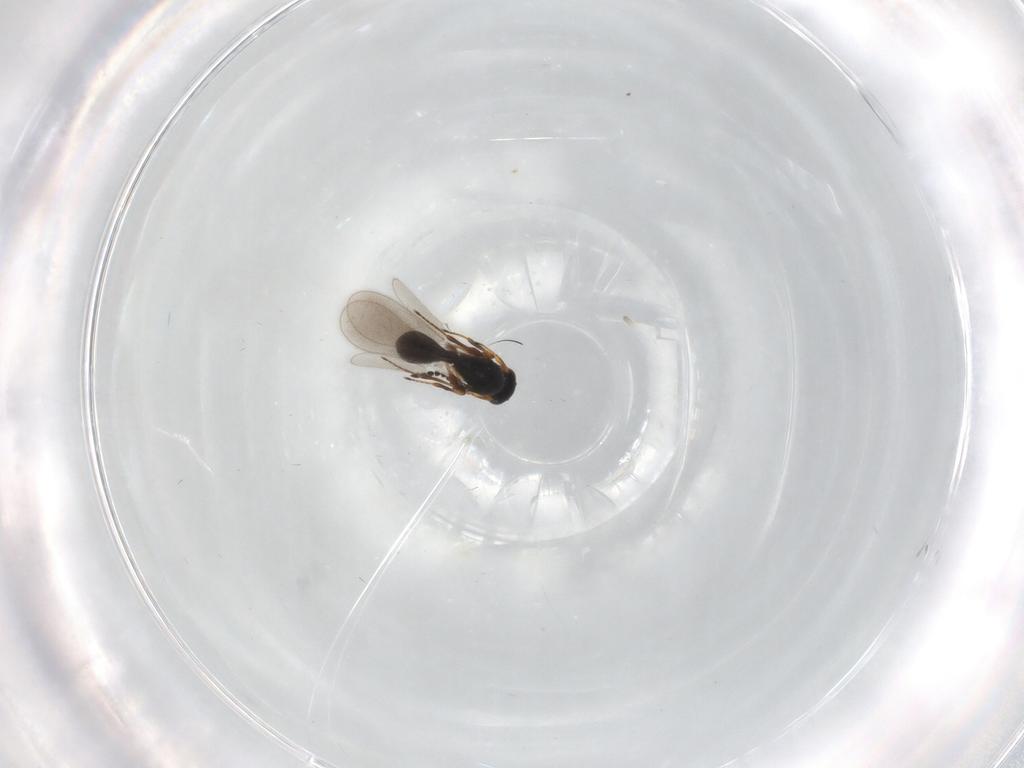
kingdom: Animalia
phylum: Arthropoda
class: Insecta
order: Hymenoptera
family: Platygastridae
